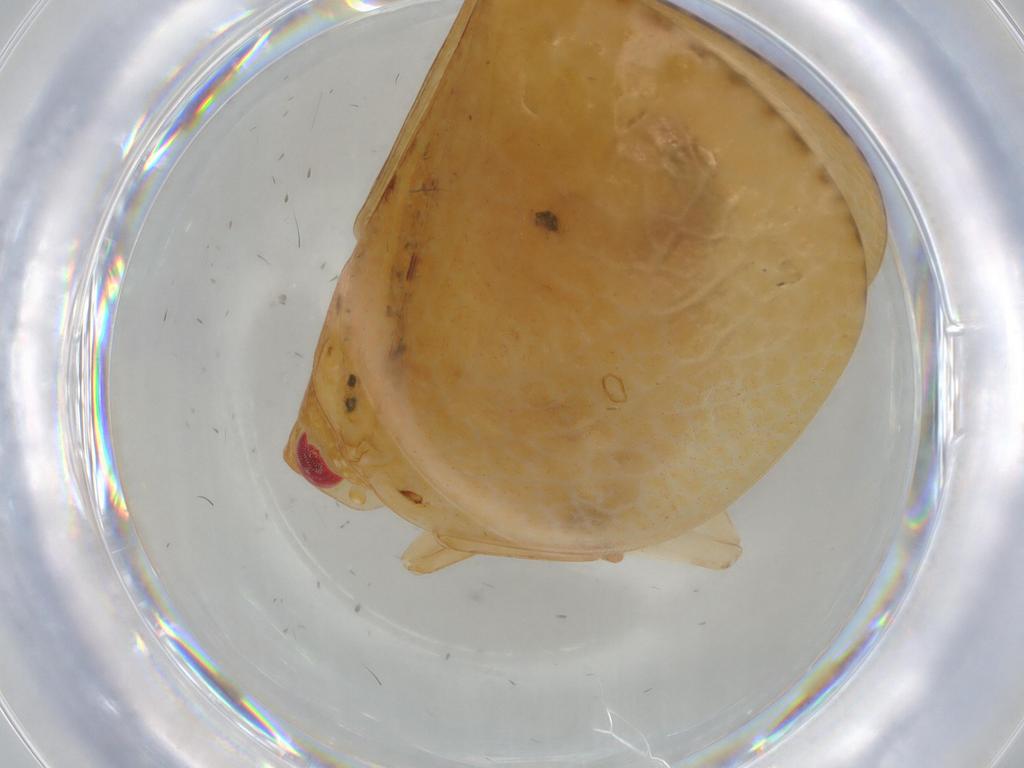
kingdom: Animalia
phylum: Arthropoda
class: Insecta
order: Hemiptera
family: Acanaloniidae
